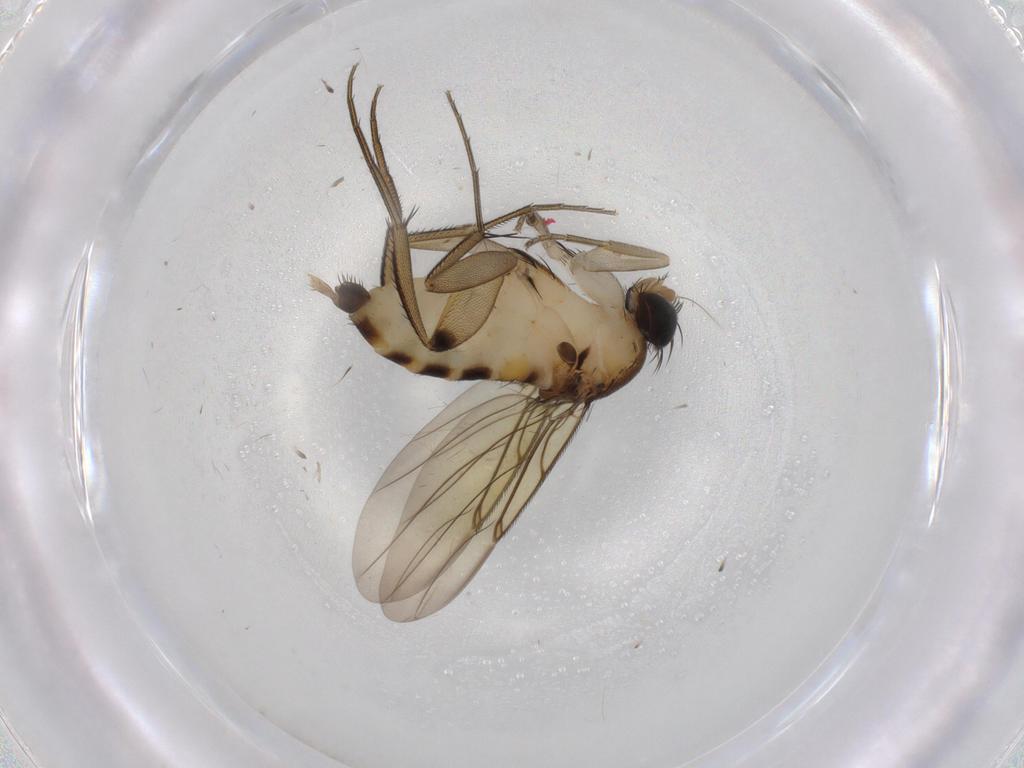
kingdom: Animalia
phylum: Arthropoda
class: Insecta
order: Diptera
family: Phoridae
